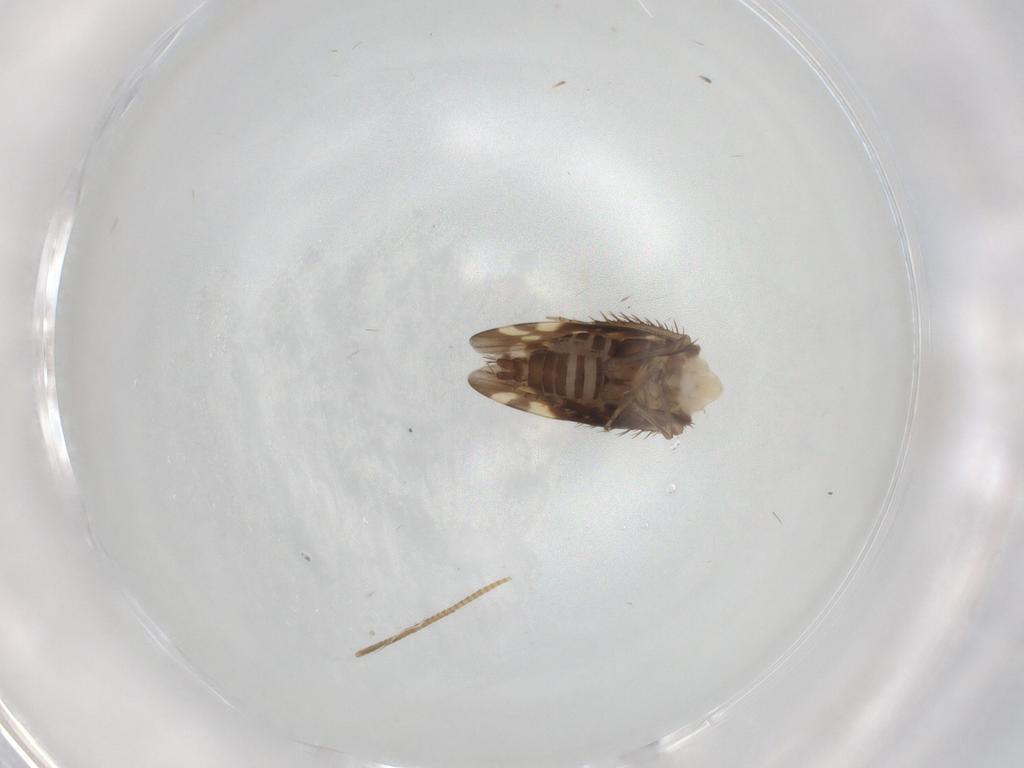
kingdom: Animalia
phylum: Arthropoda
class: Insecta
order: Hemiptera
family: Cicadellidae
